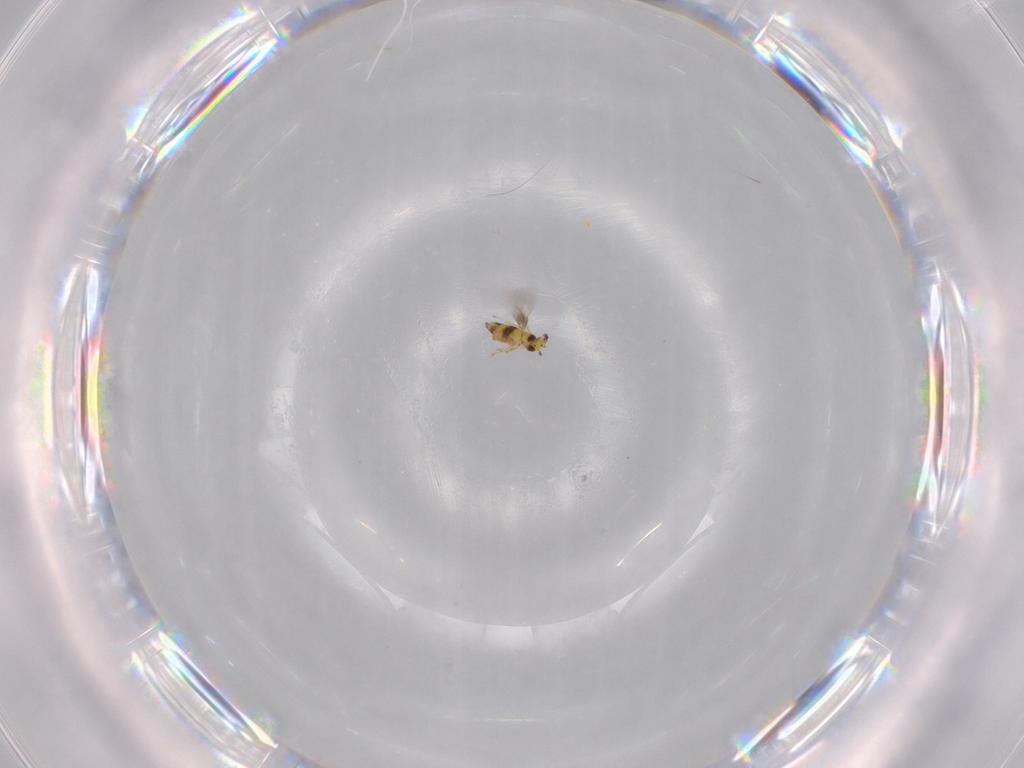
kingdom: Animalia
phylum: Arthropoda
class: Insecta
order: Hymenoptera
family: Signiphoridae
